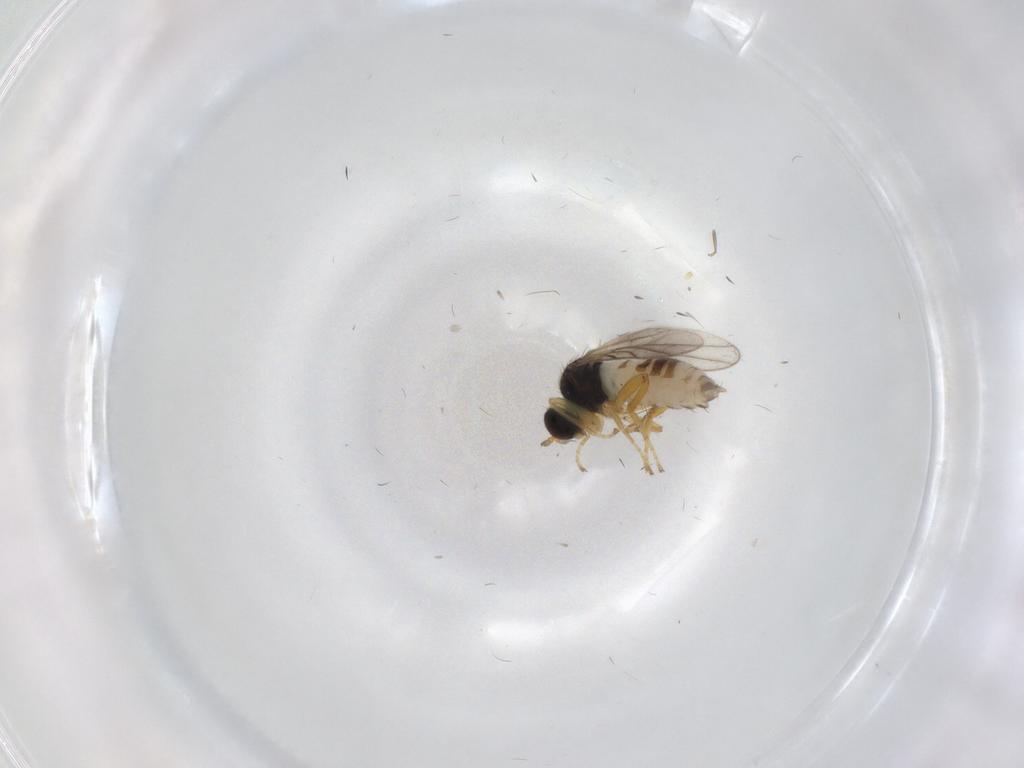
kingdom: Animalia
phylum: Arthropoda
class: Insecta
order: Diptera
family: Hybotidae
